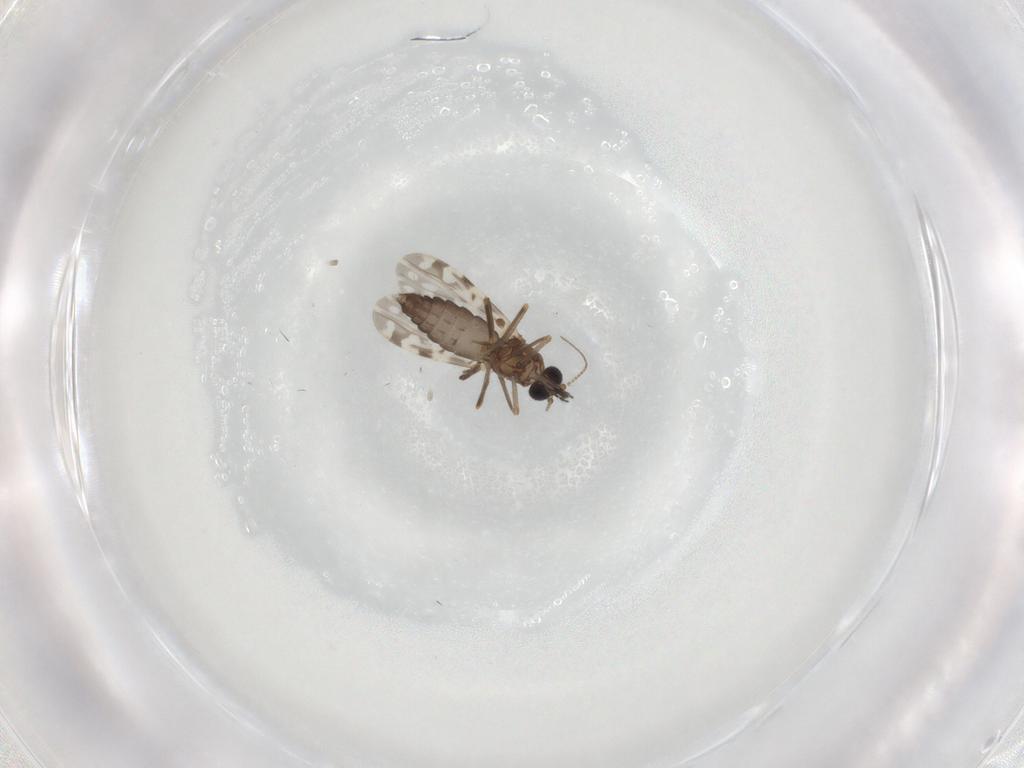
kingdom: Animalia
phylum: Arthropoda
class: Insecta
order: Diptera
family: Ceratopogonidae
